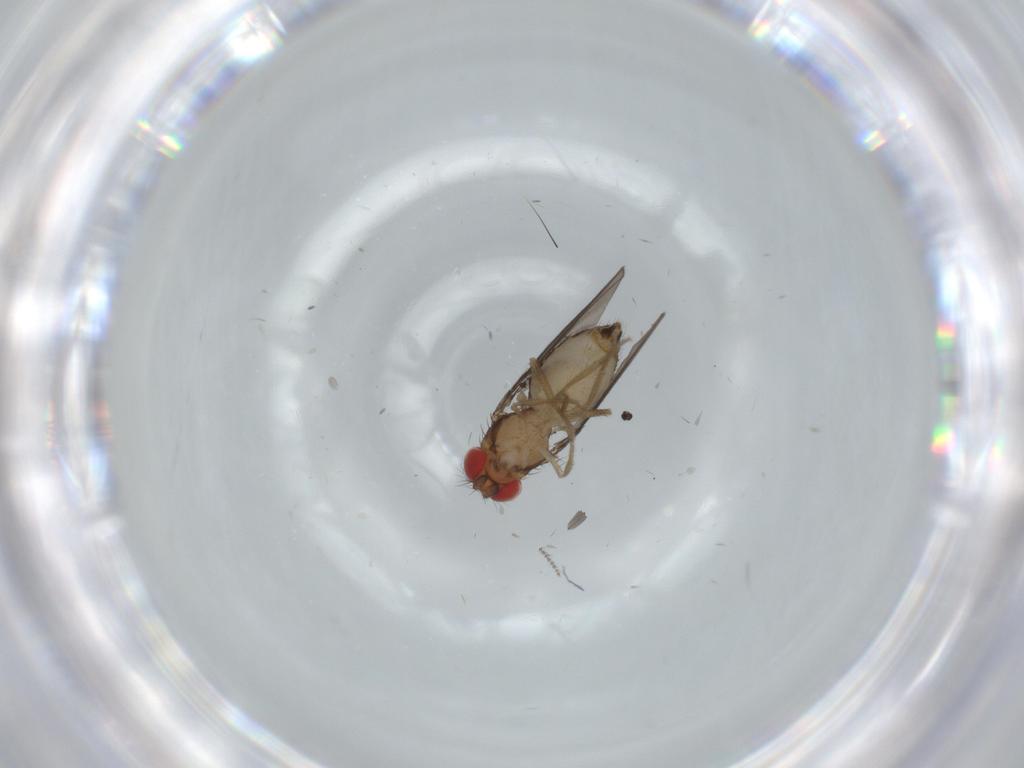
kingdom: Animalia
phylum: Arthropoda
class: Insecta
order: Diptera
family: Drosophilidae
